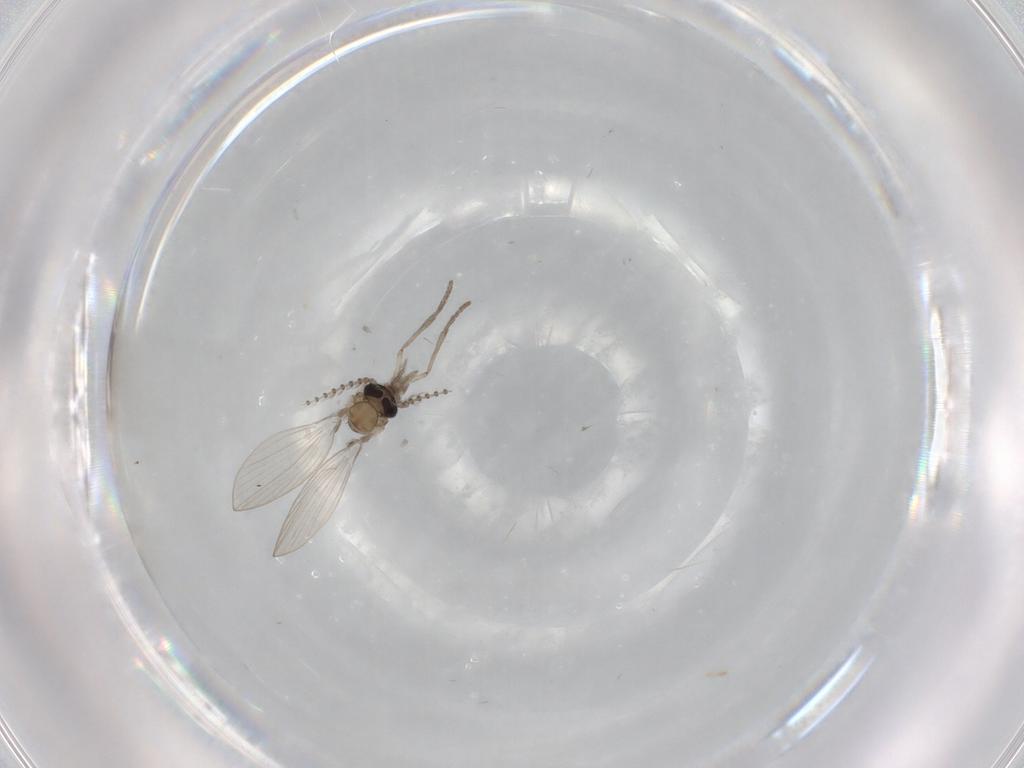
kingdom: Animalia
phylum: Arthropoda
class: Insecta
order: Diptera
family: Psychodidae
